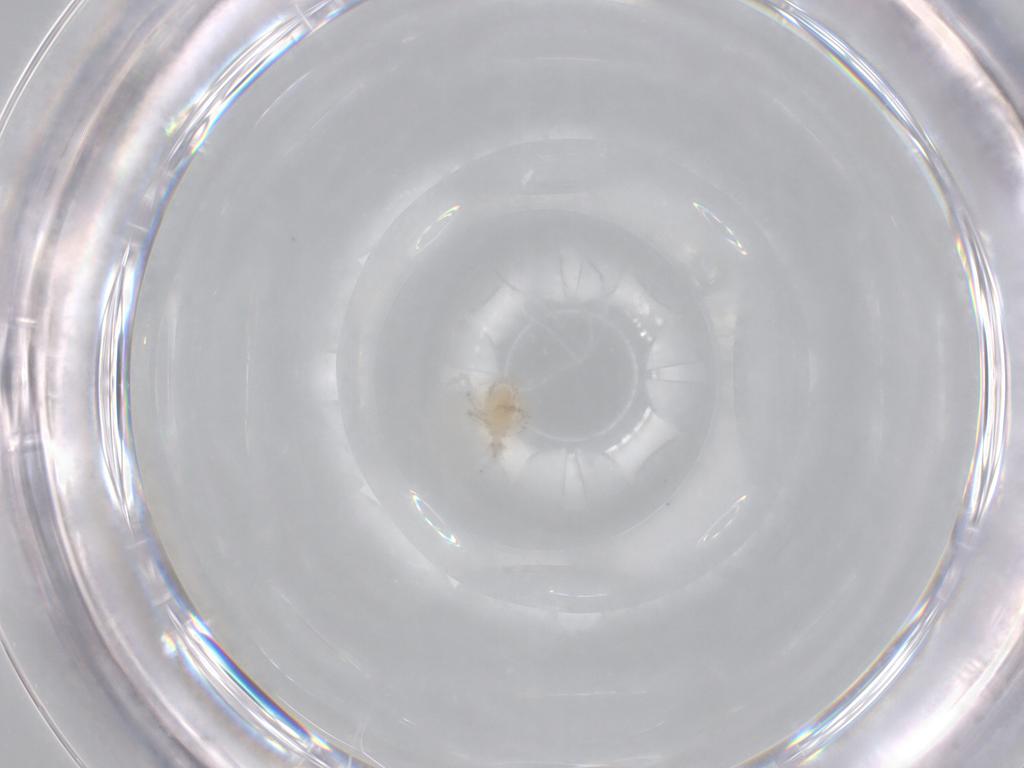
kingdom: Animalia
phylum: Arthropoda
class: Arachnida
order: Trombidiformes
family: Erythraeidae
